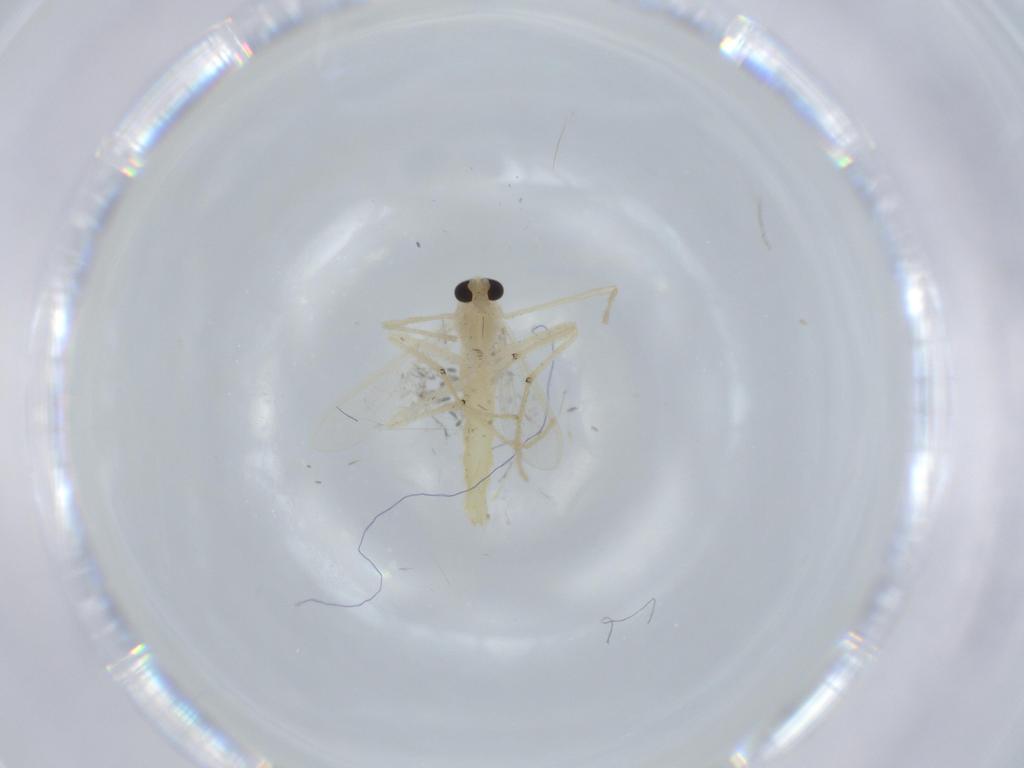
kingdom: Animalia
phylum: Arthropoda
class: Insecta
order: Diptera
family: Chironomidae
